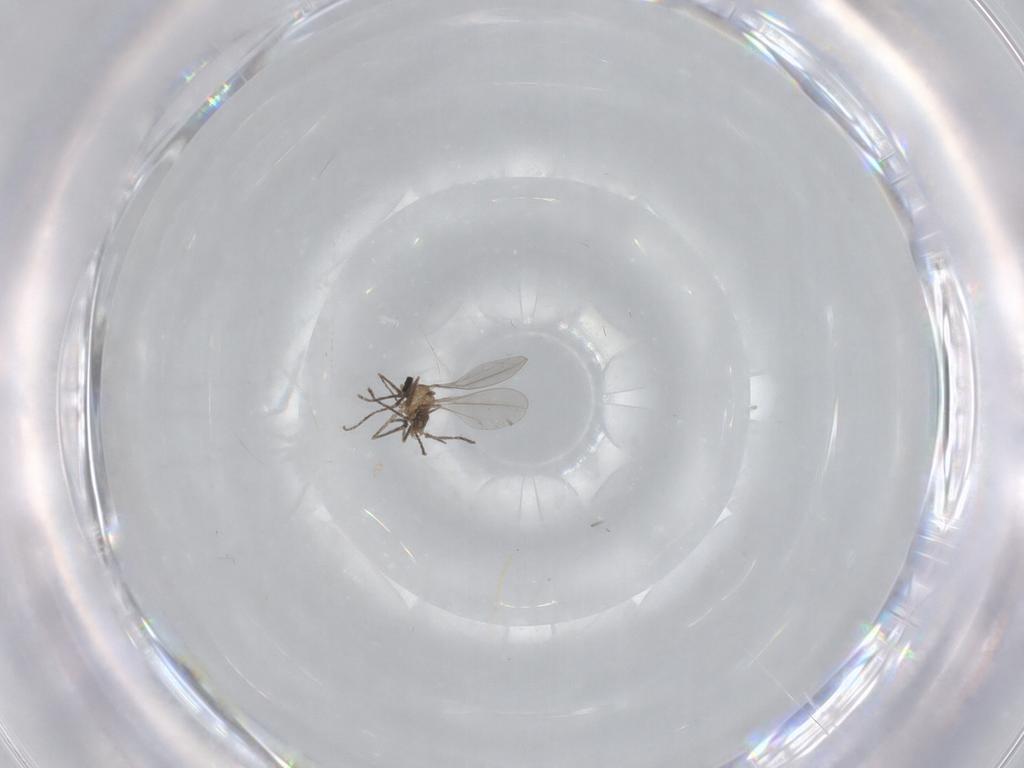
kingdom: Animalia
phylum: Arthropoda
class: Insecta
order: Diptera
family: Cecidomyiidae
